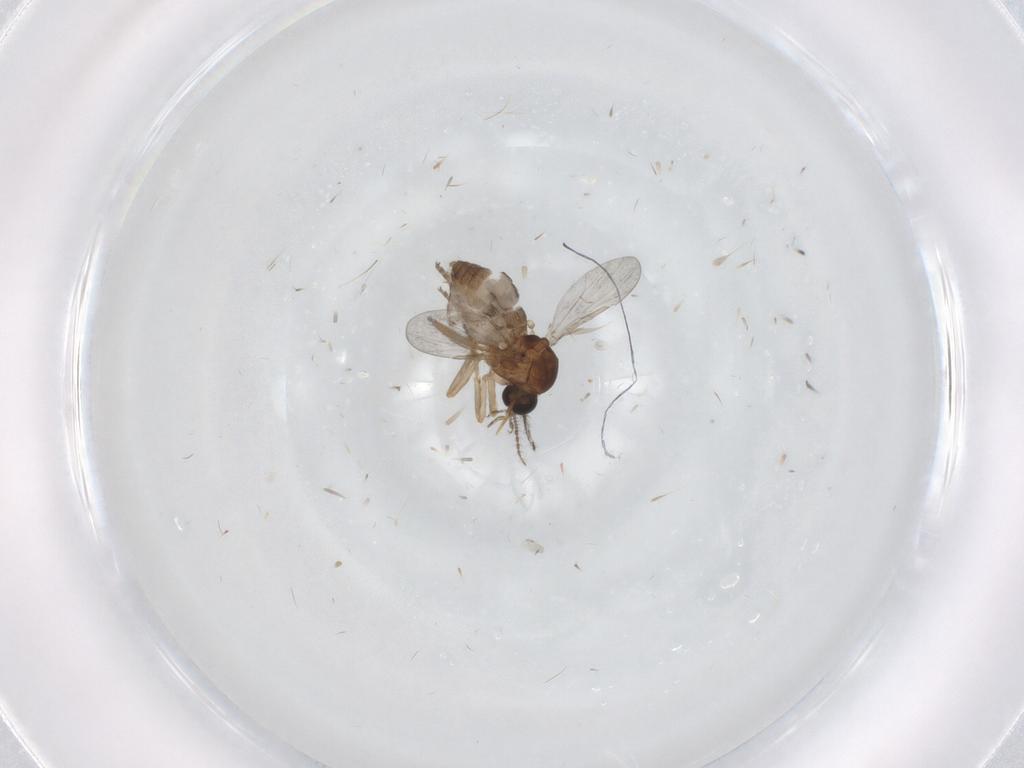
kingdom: Animalia
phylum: Arthropoda
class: Insecta
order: Diptera
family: Ceratopogonidae
